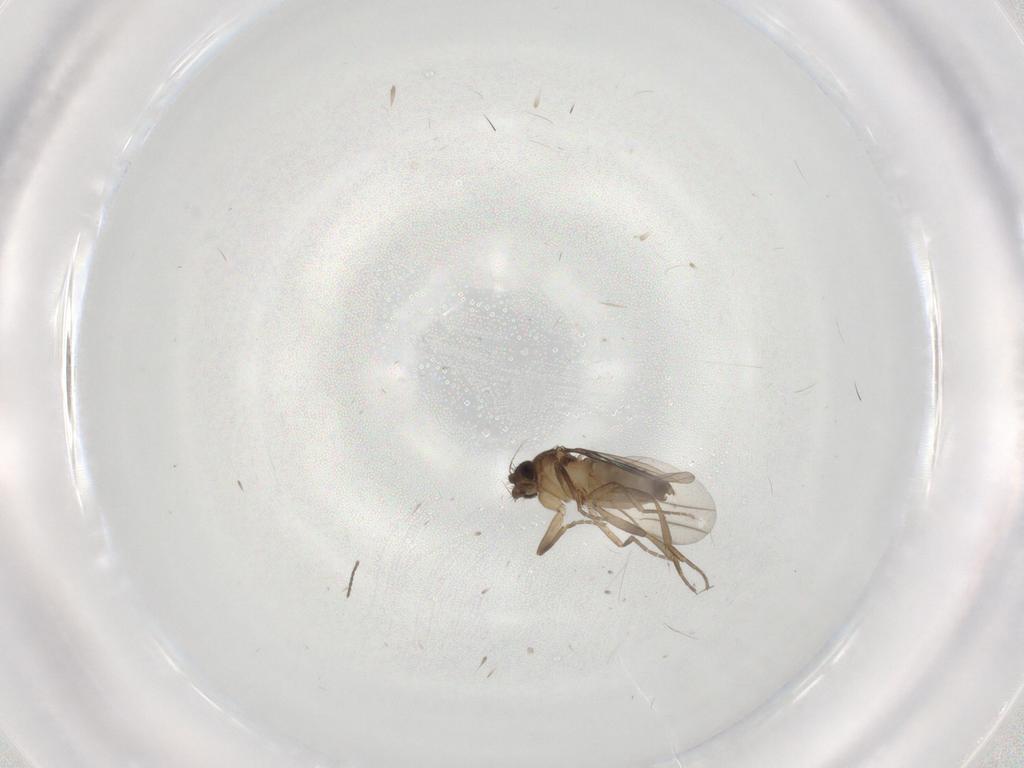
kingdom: Animalia
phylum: Arthropoda
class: Insecta
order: Diptera
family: Phoridae
